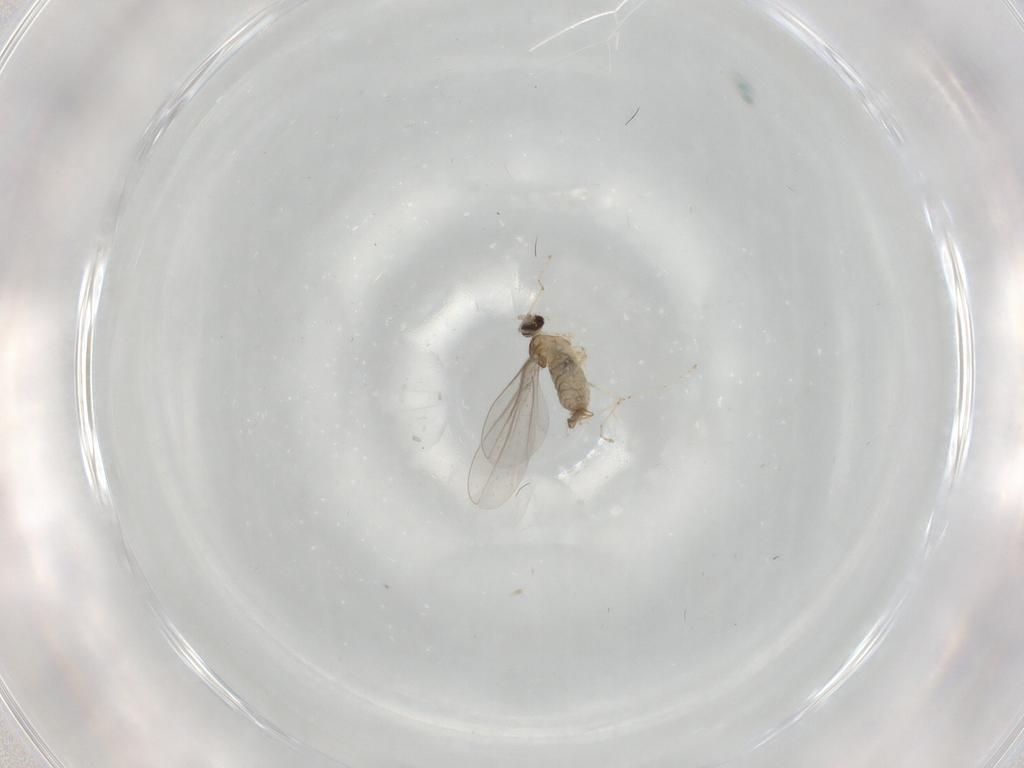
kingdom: Animalia
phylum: Arthropoda
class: Insecta
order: Diptera
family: Cecidomyiidae
